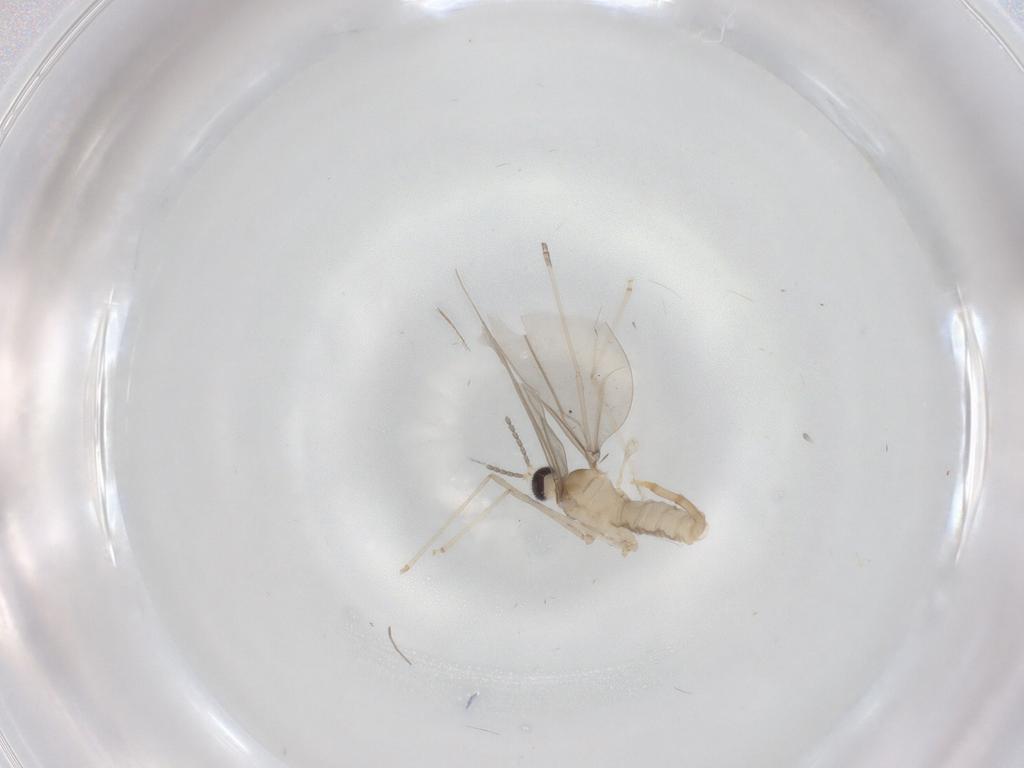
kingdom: Animalia
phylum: Arthropoda
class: Insecta
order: Diptera
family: Cecidomyiidae
